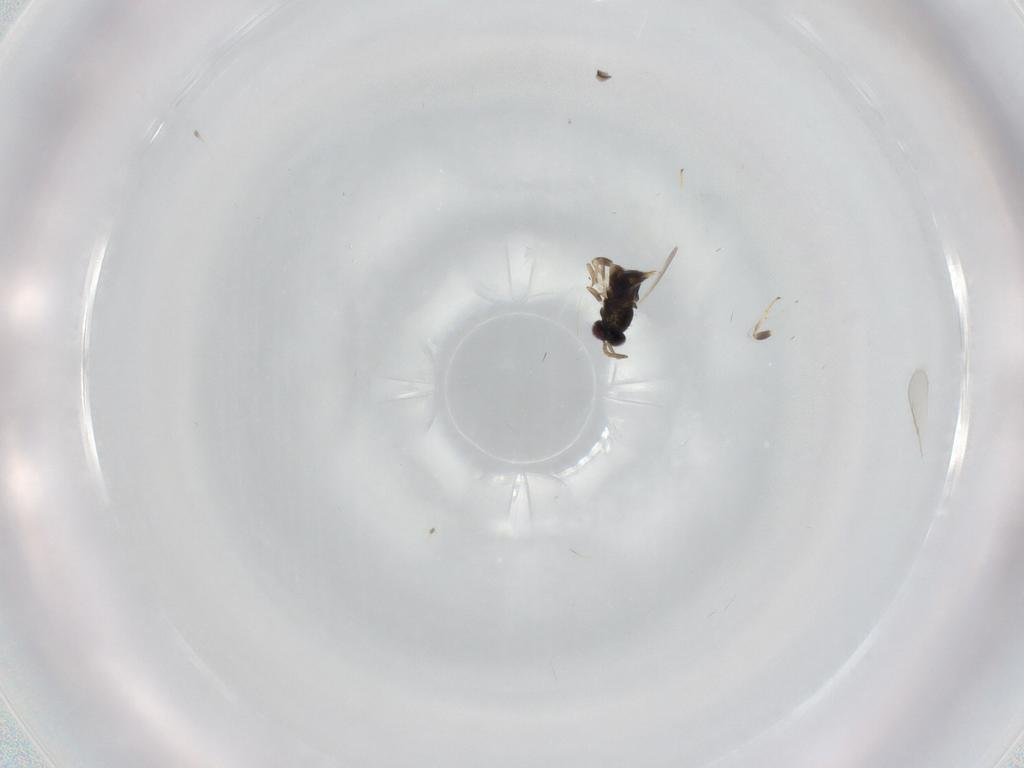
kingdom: Animalia
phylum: Arthropoda
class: Insecta
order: Hymenoptera
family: Aphelinidae
